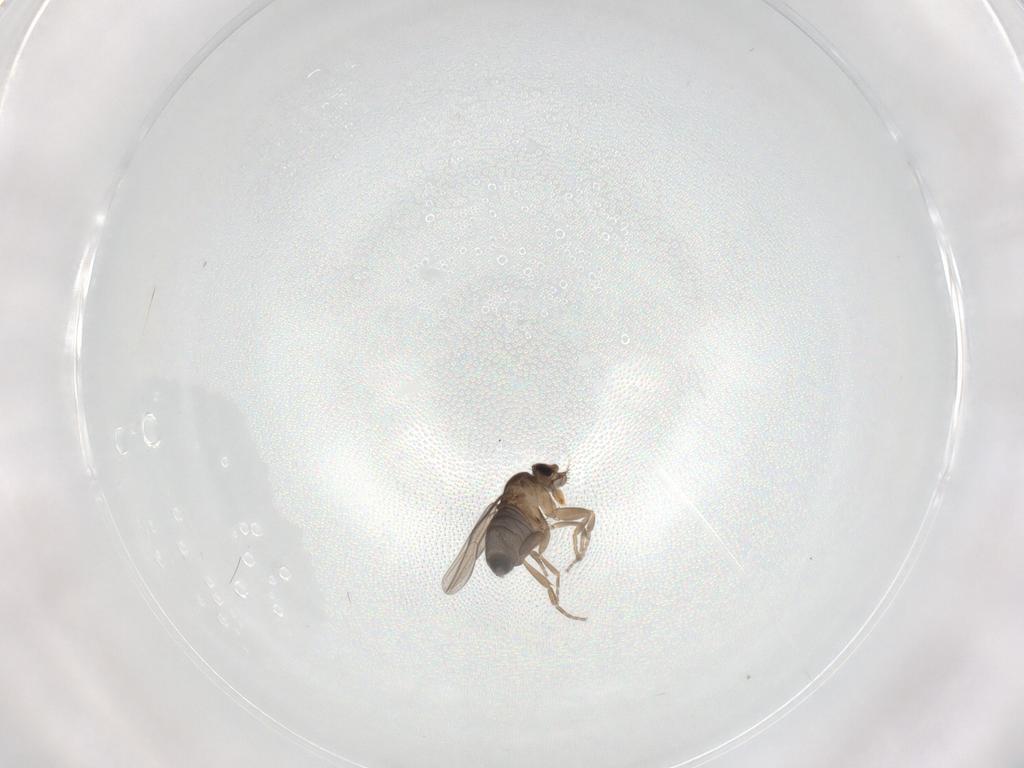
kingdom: Animalia
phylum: Arthropoda
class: Insecta
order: Diptera
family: Phoridae
